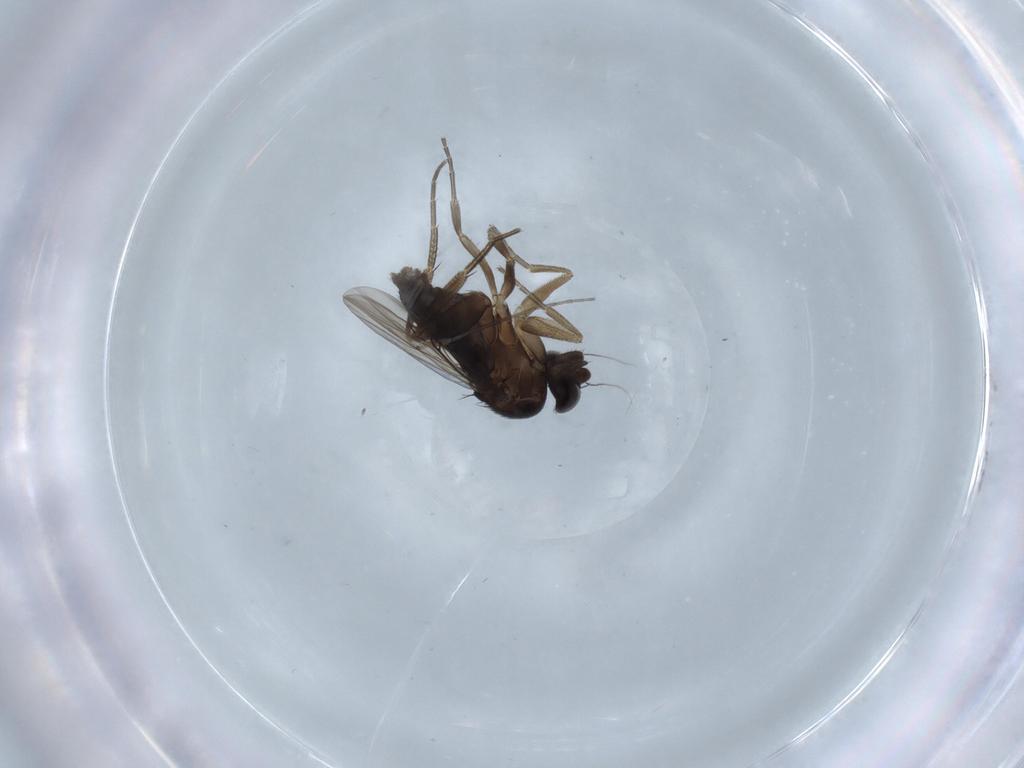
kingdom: Animalia
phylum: Arthropoda
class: Insecta
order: Diptera
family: Phoridae
